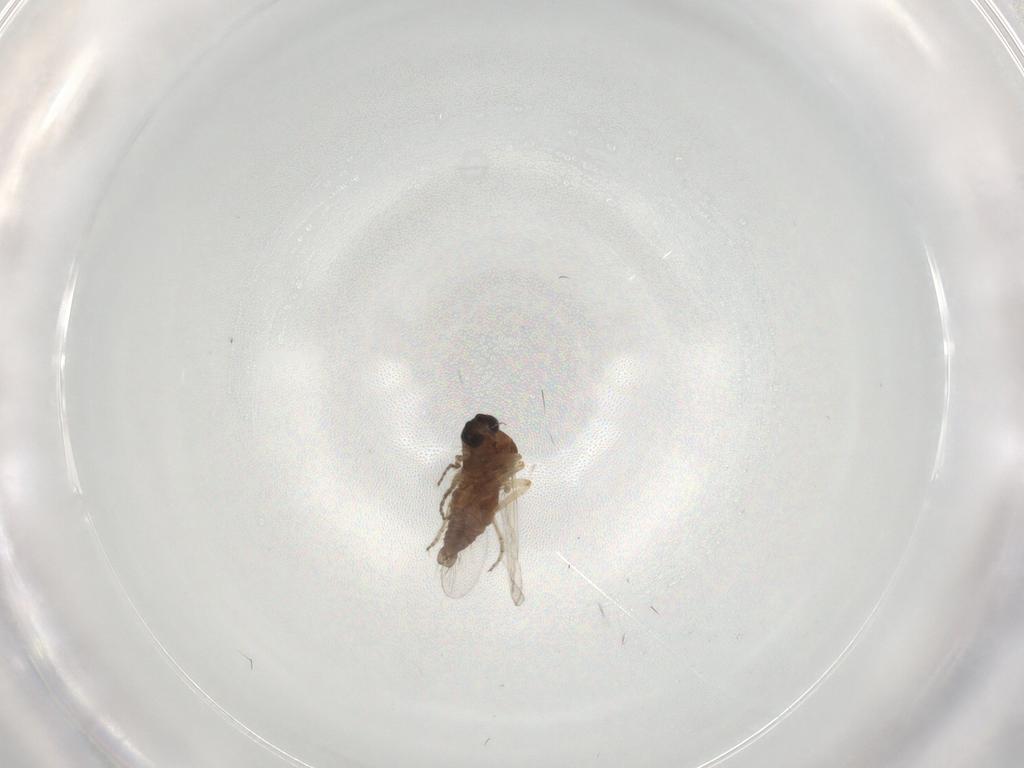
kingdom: Animalia
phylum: Arthropoda
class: Insecta
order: Diptera
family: Ceratopogonidae
